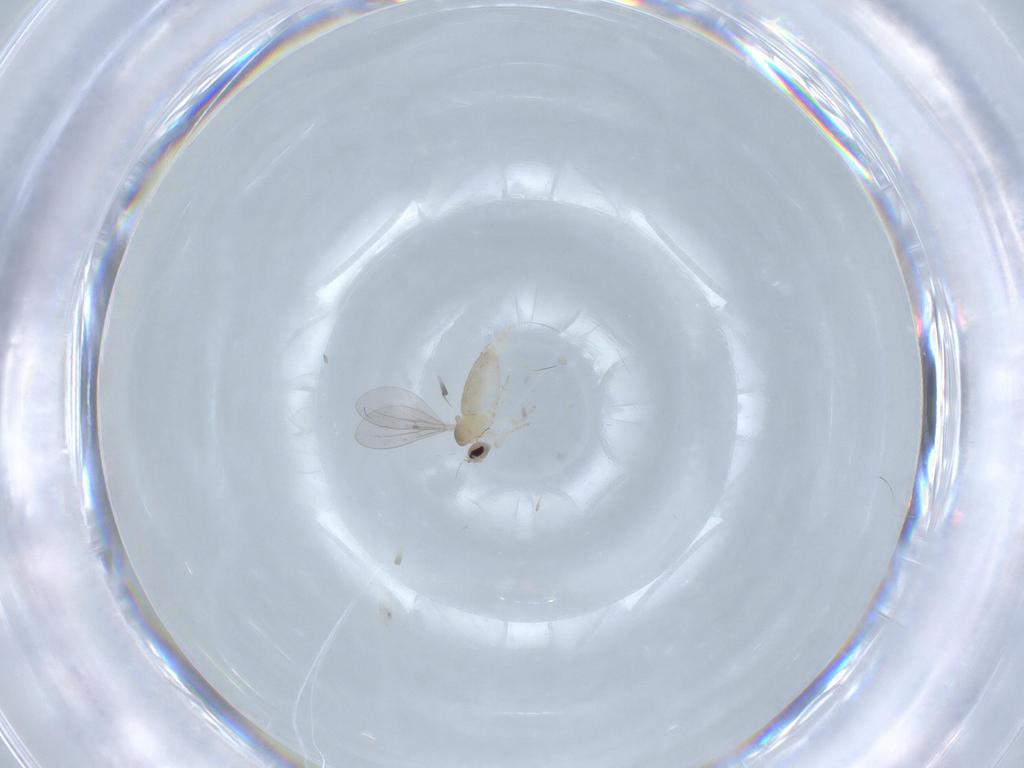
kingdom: Animalia
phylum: Arthropoda
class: Insecta
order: Diptera
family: Cecidomyiidae
